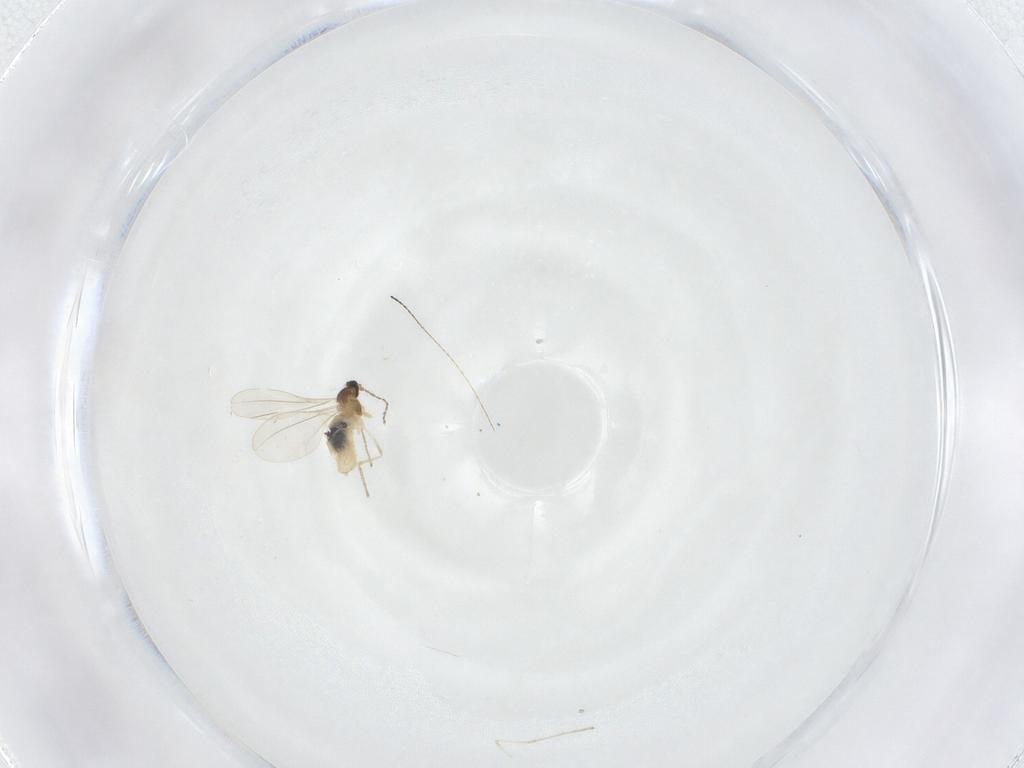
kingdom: Animalia
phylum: Arthropoda
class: Insecta
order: Diptera
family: Cecidomyiidae
